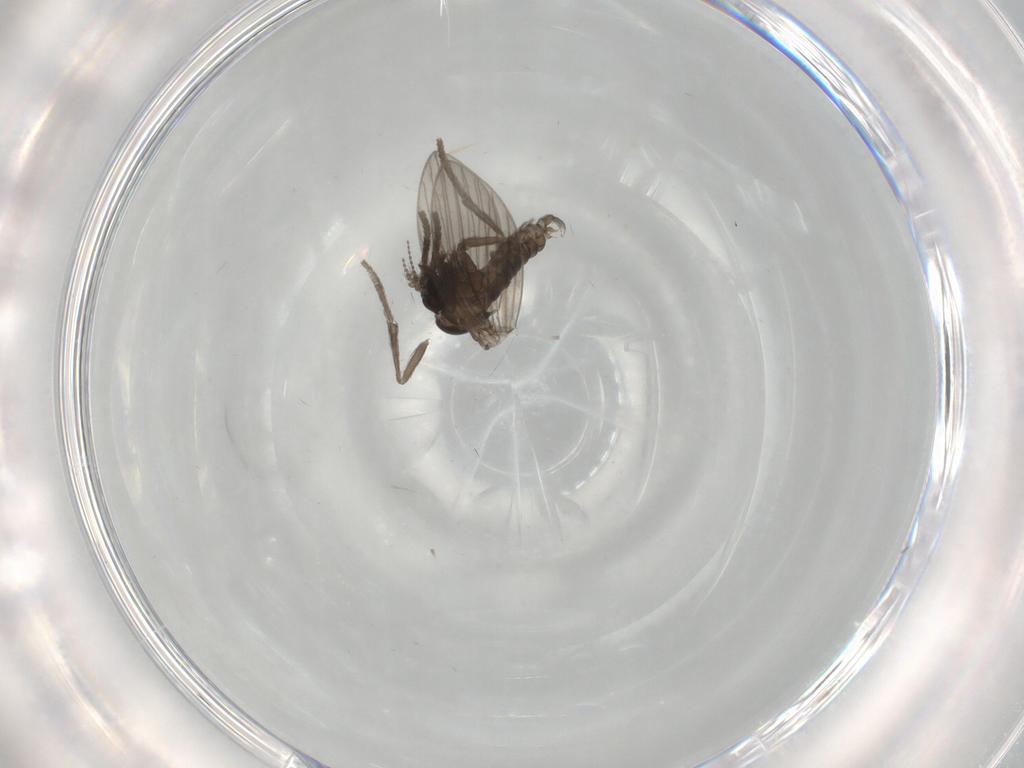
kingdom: Animalia
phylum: Arthropoda
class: Insecta
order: Diptera
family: Psychodidae
